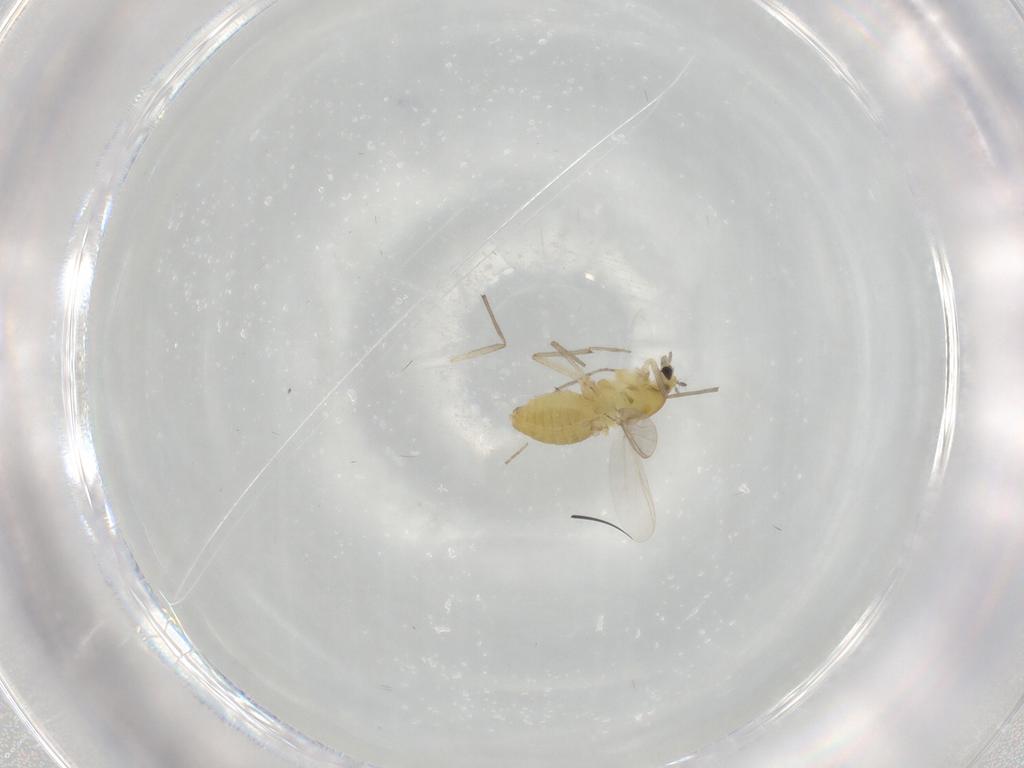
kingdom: Animalia
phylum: Arthropoda
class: Insecta
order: Diptera
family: Chironomidae
